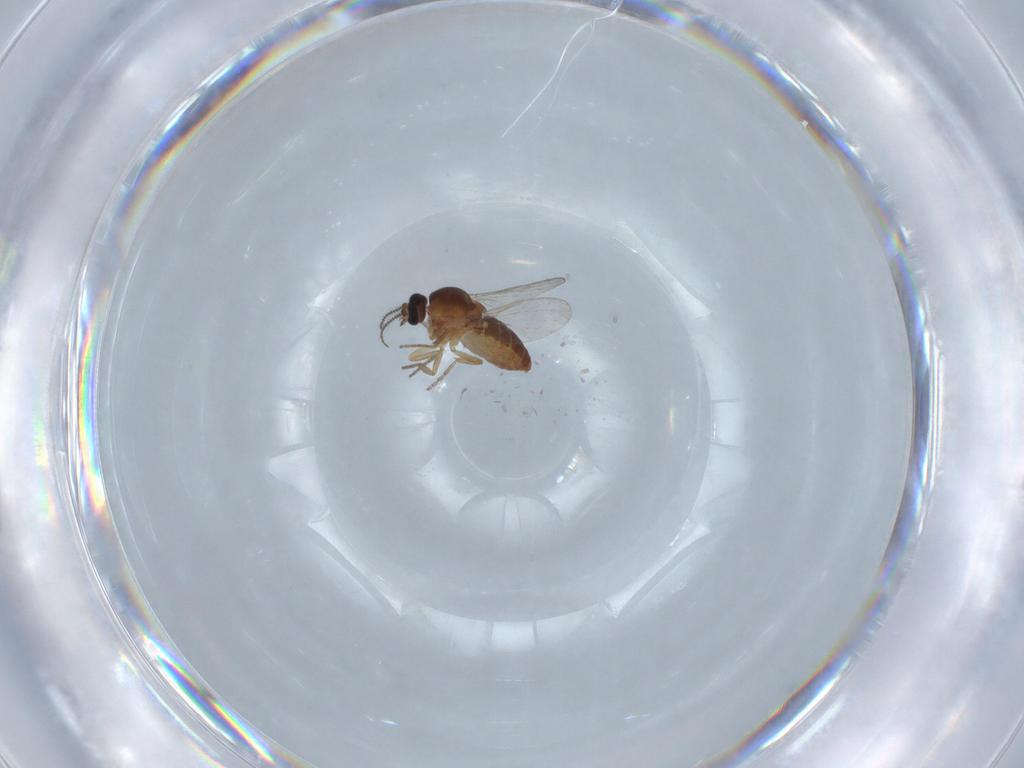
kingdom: Animalia
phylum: Arthropoda
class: Insecta
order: Diptera
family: Ceratopogonidae
